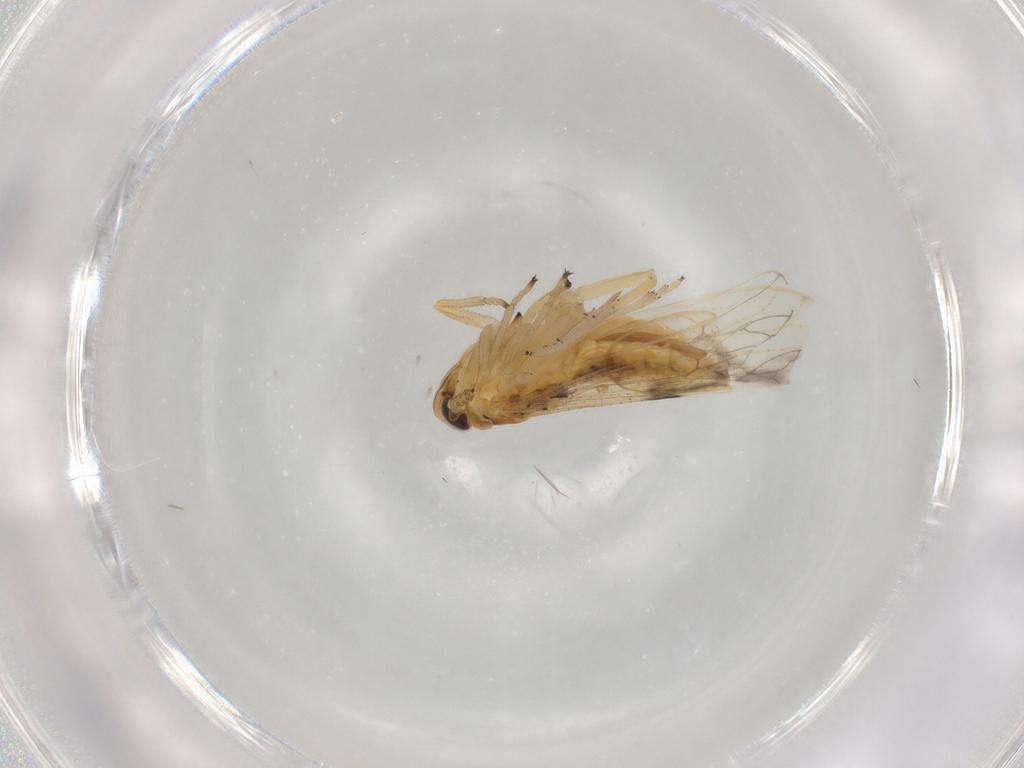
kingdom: Animalia
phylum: Arthropoda
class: Insecta
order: Hemiptera
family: Delphacidae
